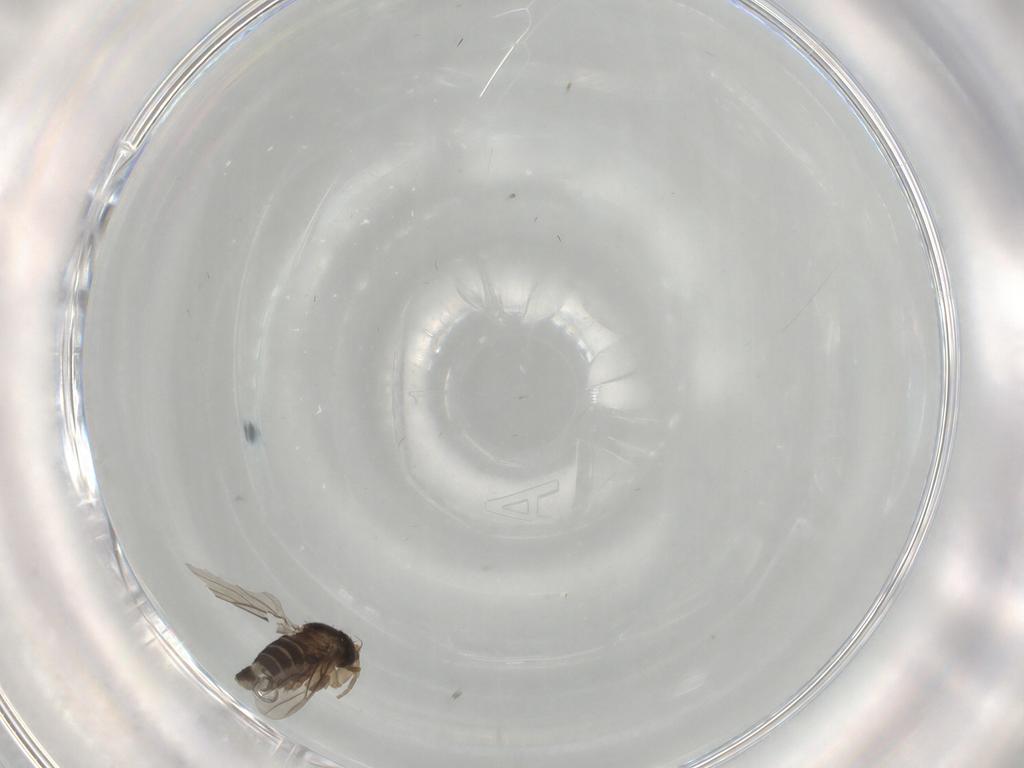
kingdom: Animalia
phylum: Arthropoda
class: Insecta
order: Diptera
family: Phoridae
